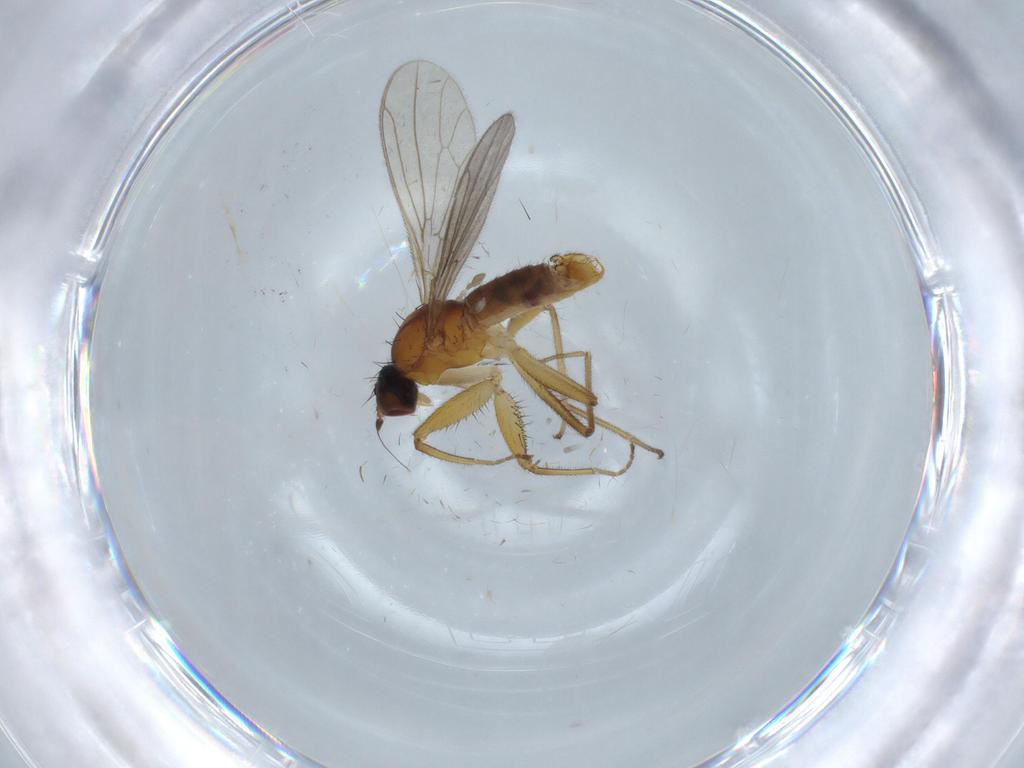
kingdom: Animalia
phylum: Arthropoda
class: Insecta
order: Diptera
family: Empididae
